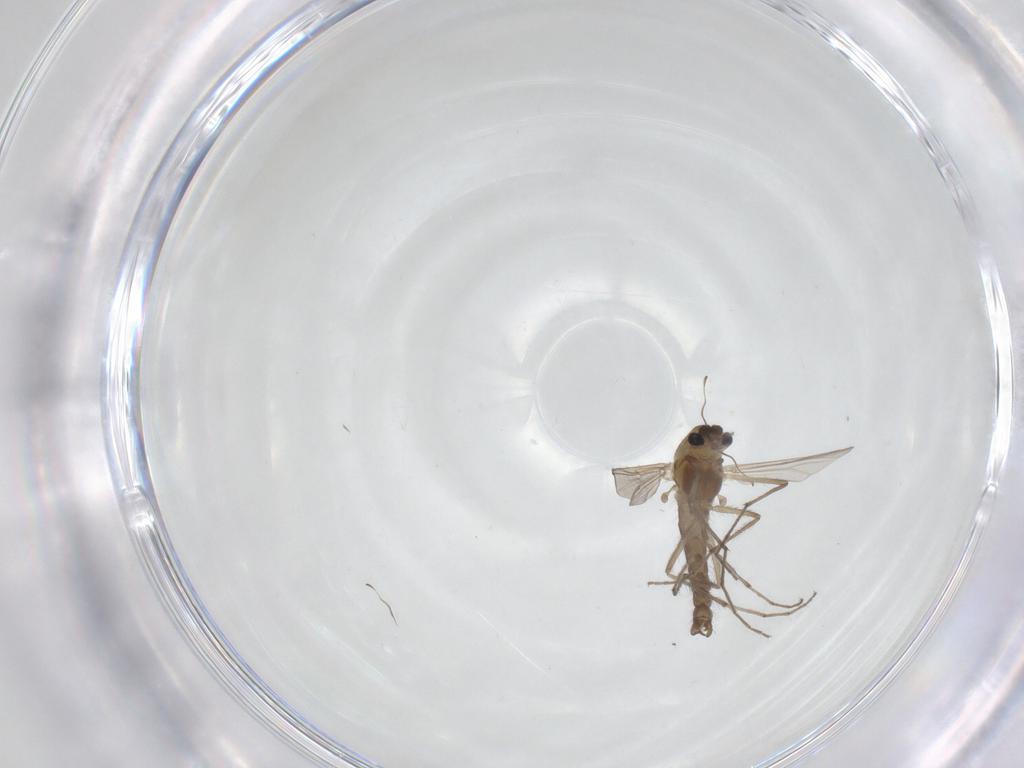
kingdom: Animalia
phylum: Arthropoda
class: Insecta
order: Diptera
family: Chironomidae
